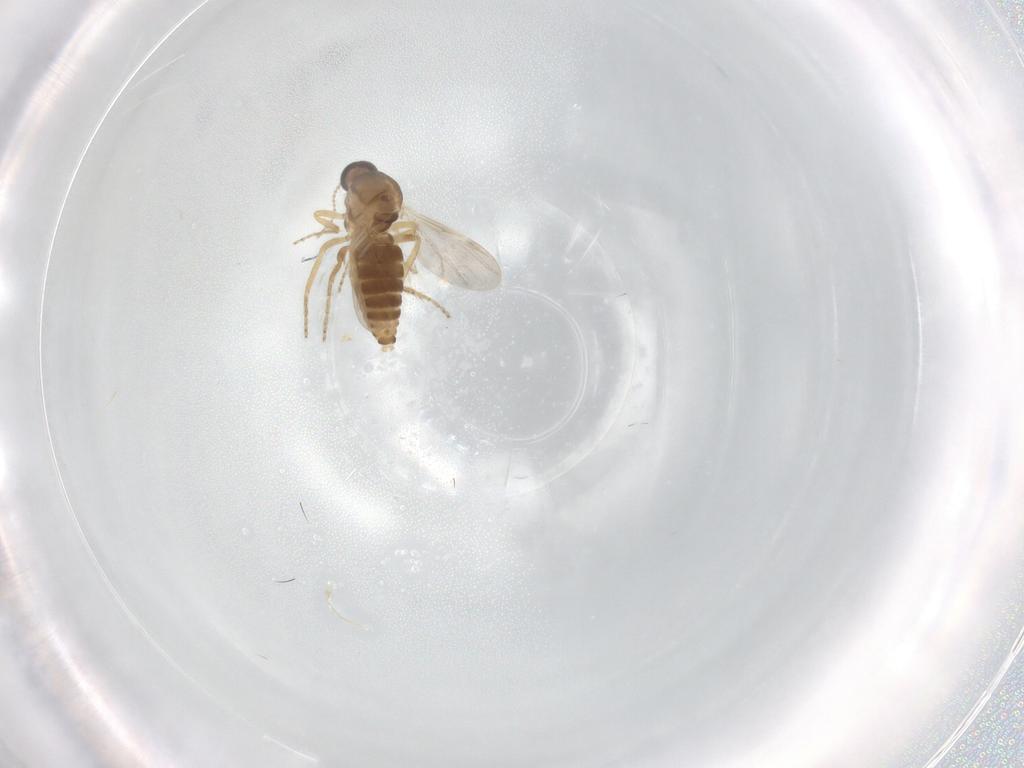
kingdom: Animalia
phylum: Arthropoda
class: Insecta
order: Diptera
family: Ceratopogonidae
